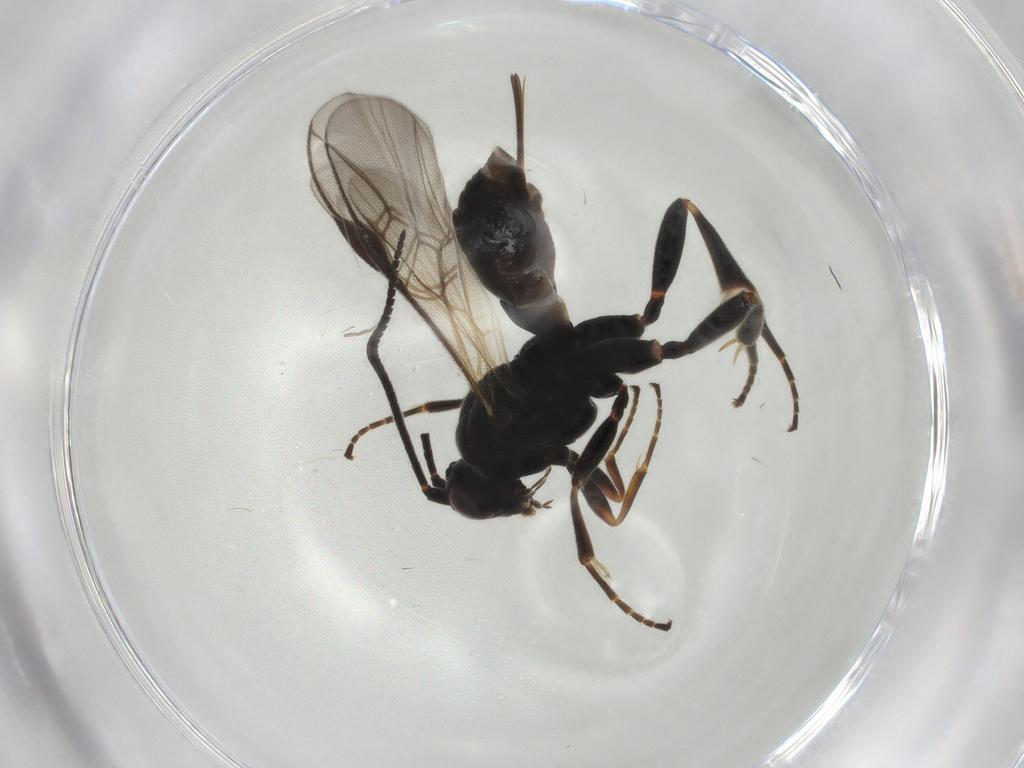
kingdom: Animalia
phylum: Arthropoda
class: Insecta
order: Hymenoptera
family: Braconidae
